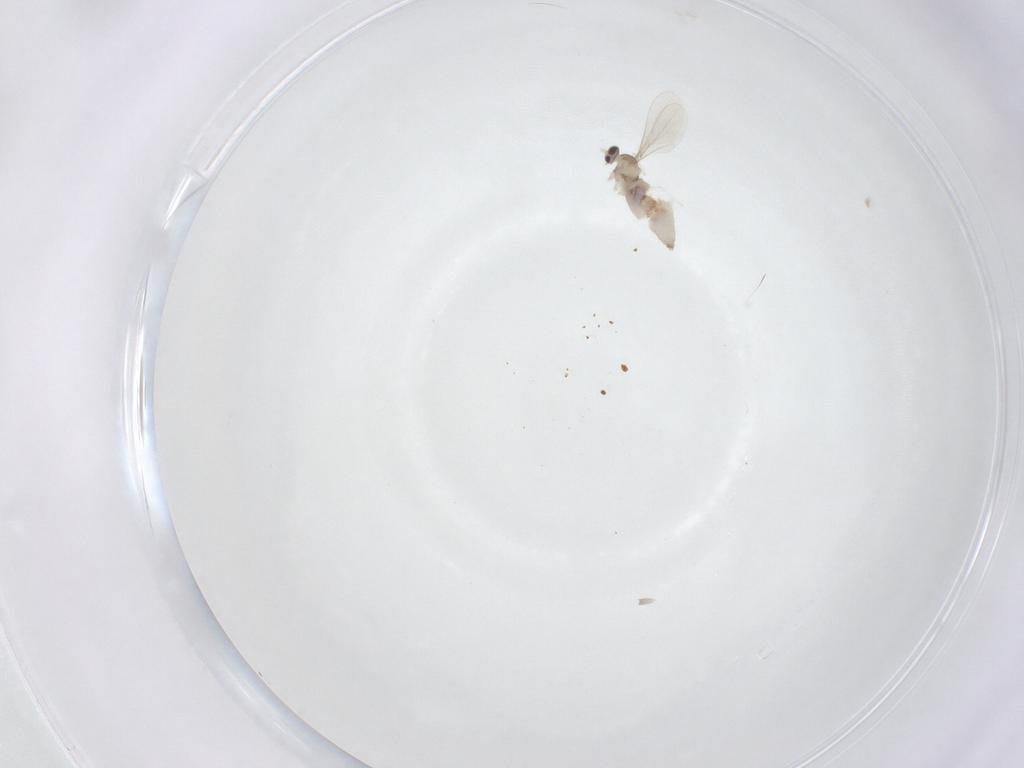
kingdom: Animalia
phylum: Arthropoda
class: Insecta
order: Diptera
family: Cecidomyiidae
